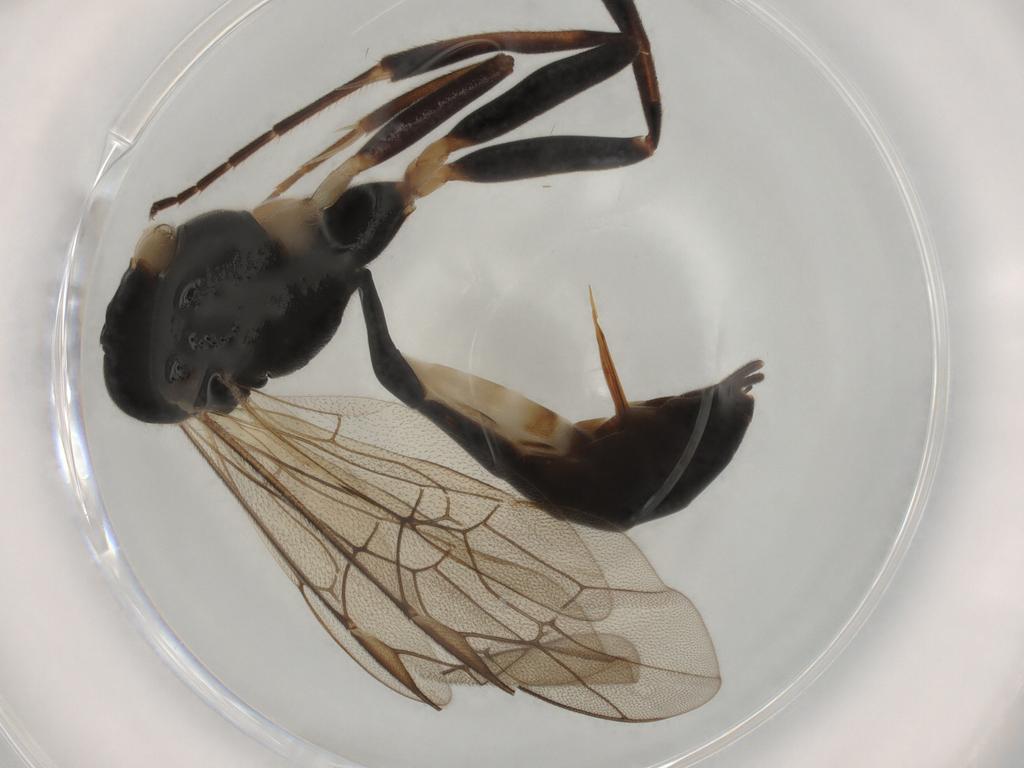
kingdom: Animalia
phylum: Arthropoda
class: Insecta
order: Hymenoptera
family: Ichneumonidae
